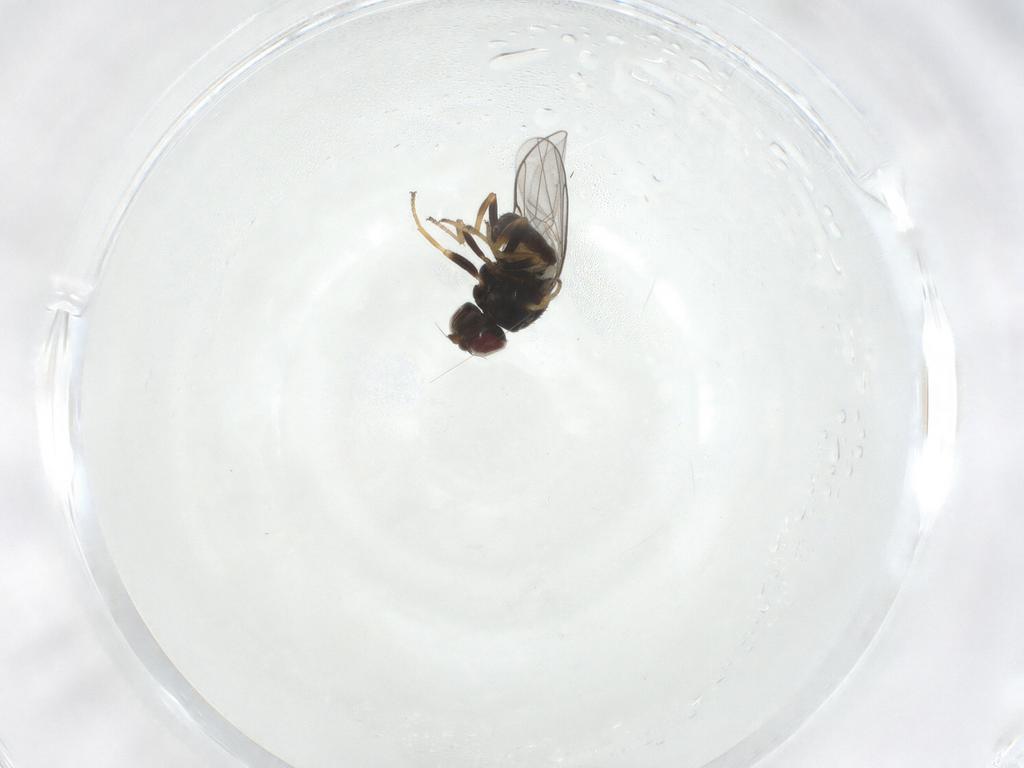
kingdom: Animalia
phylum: Arthropoda
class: Insecta
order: Diptera
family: Chloropidae
